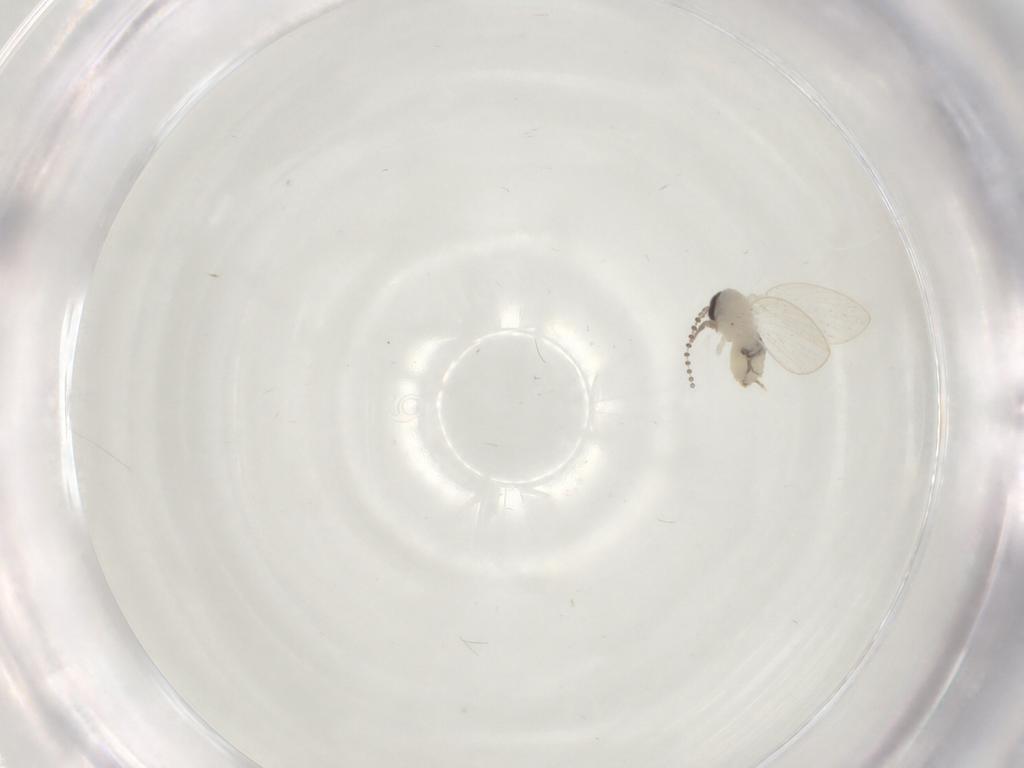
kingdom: Animalia
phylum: Arthropoda
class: Insecta
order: Diptera
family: Psychodidae
